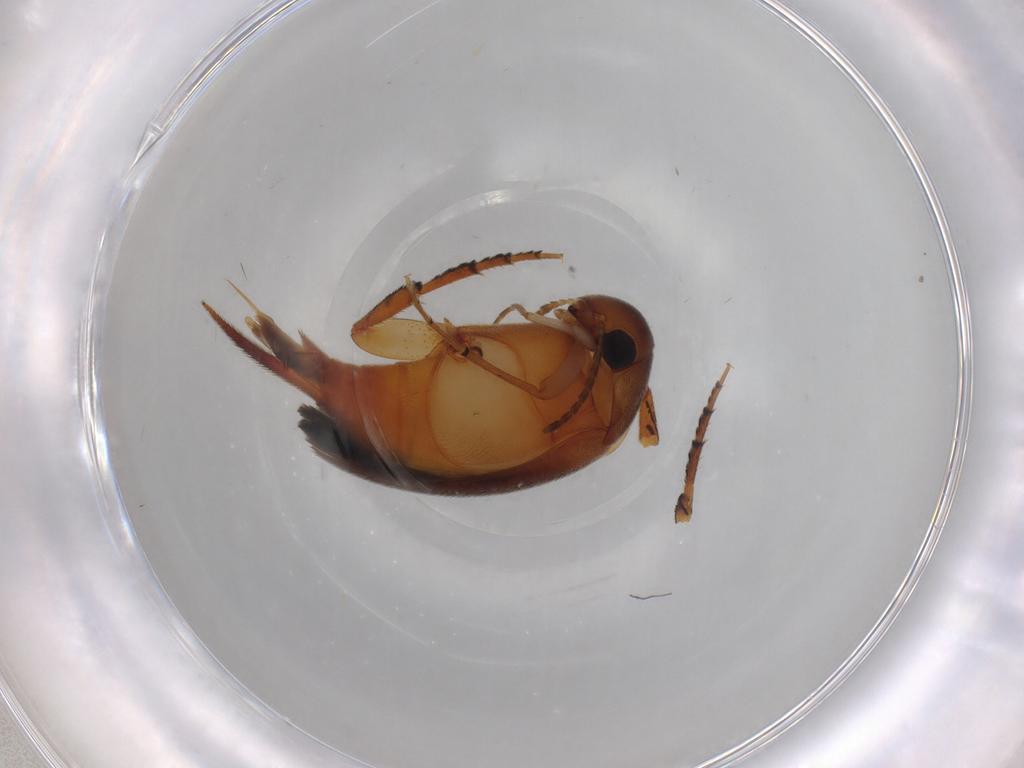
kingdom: Animalia
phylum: Arthropoda
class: Insecta
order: Coleoptera
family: Mordellidae
